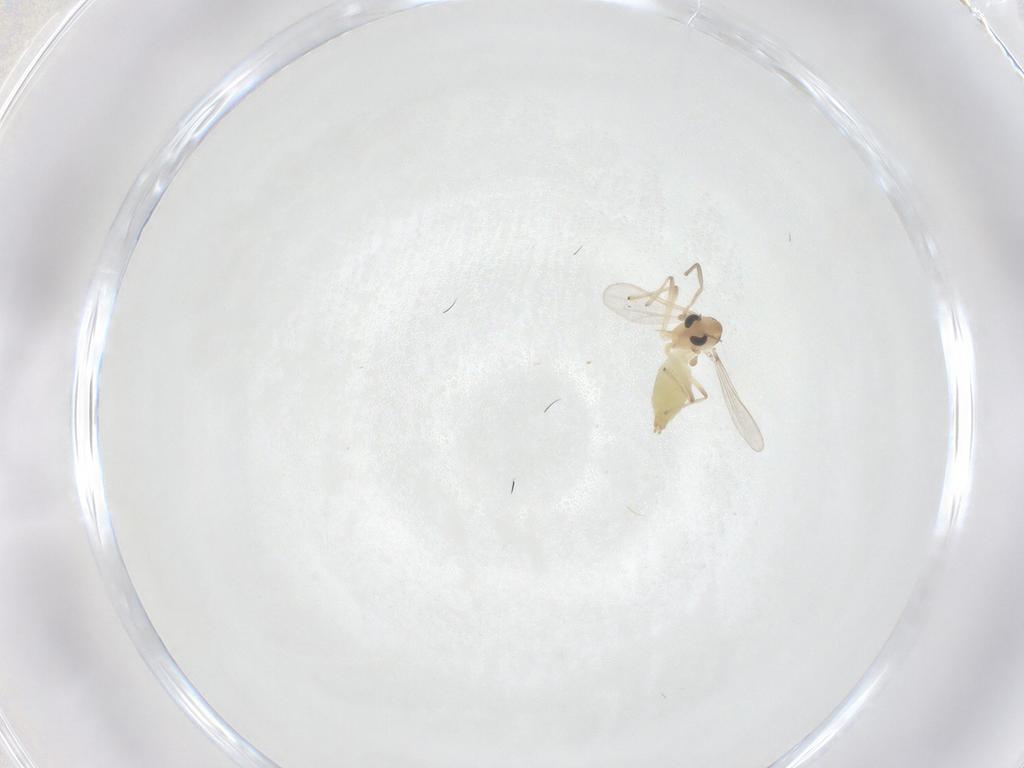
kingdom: Animalia
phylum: Arthropoda
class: Insecta
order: Diptera
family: Chironomidae
